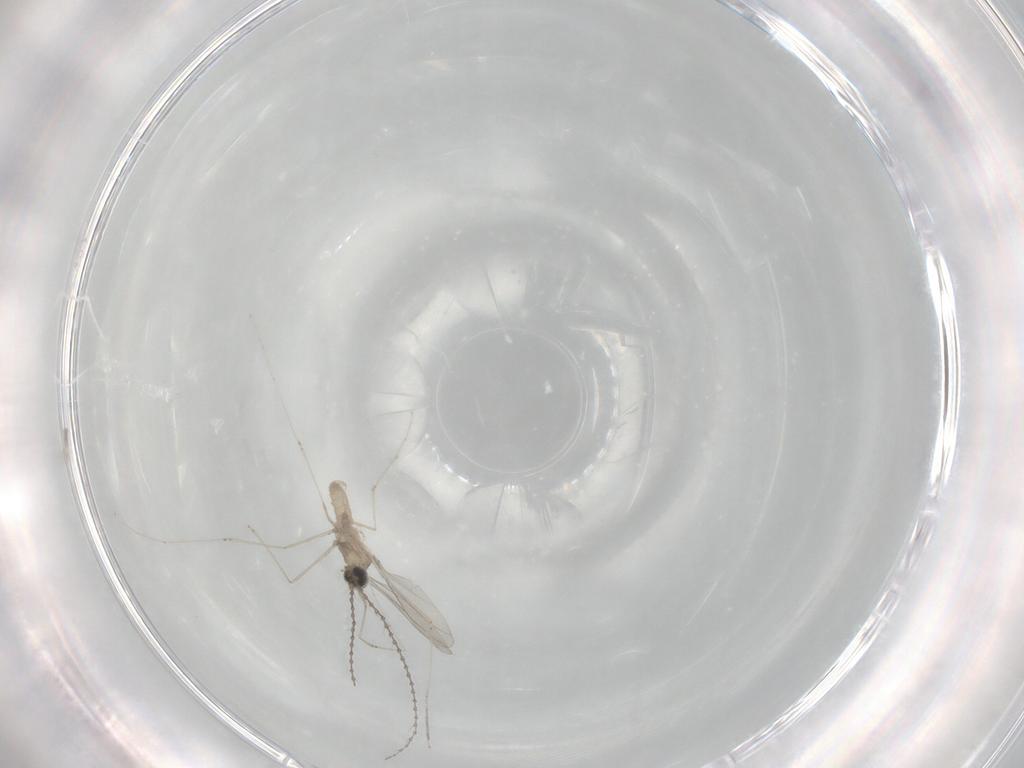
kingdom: Animalia
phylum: Arthropoda
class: Insecta
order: Diptera
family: Cecidomyiidae
